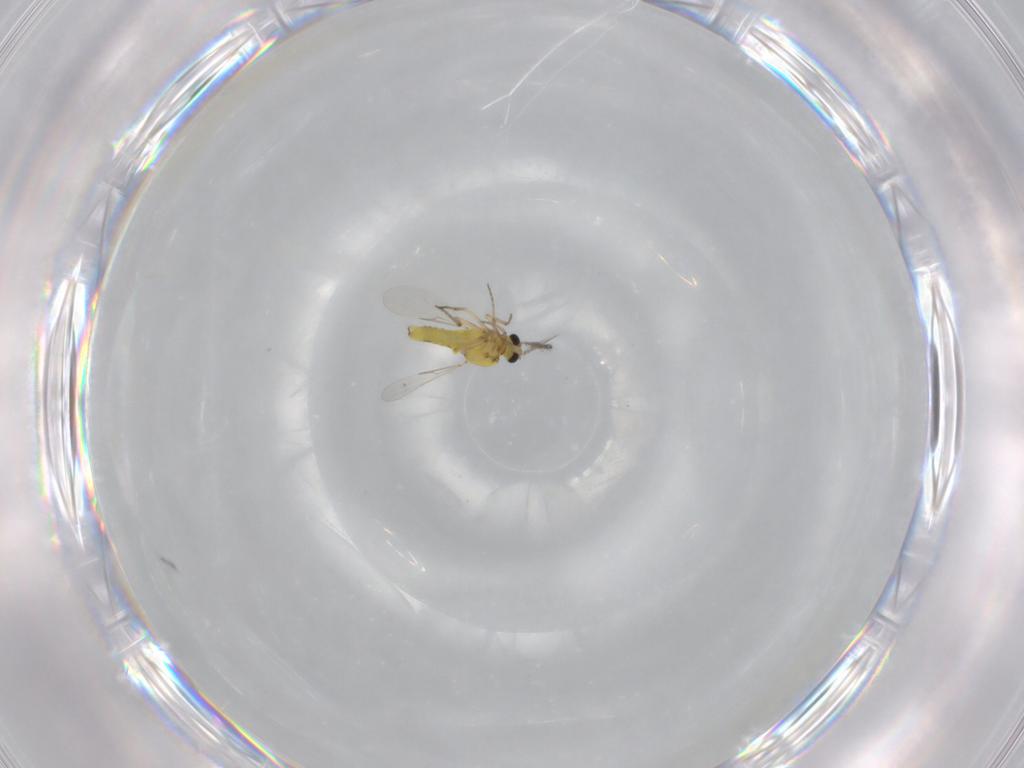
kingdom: Animalia
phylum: Arthropoda
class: Insecta
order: Diptera
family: Ceratopogonidae
